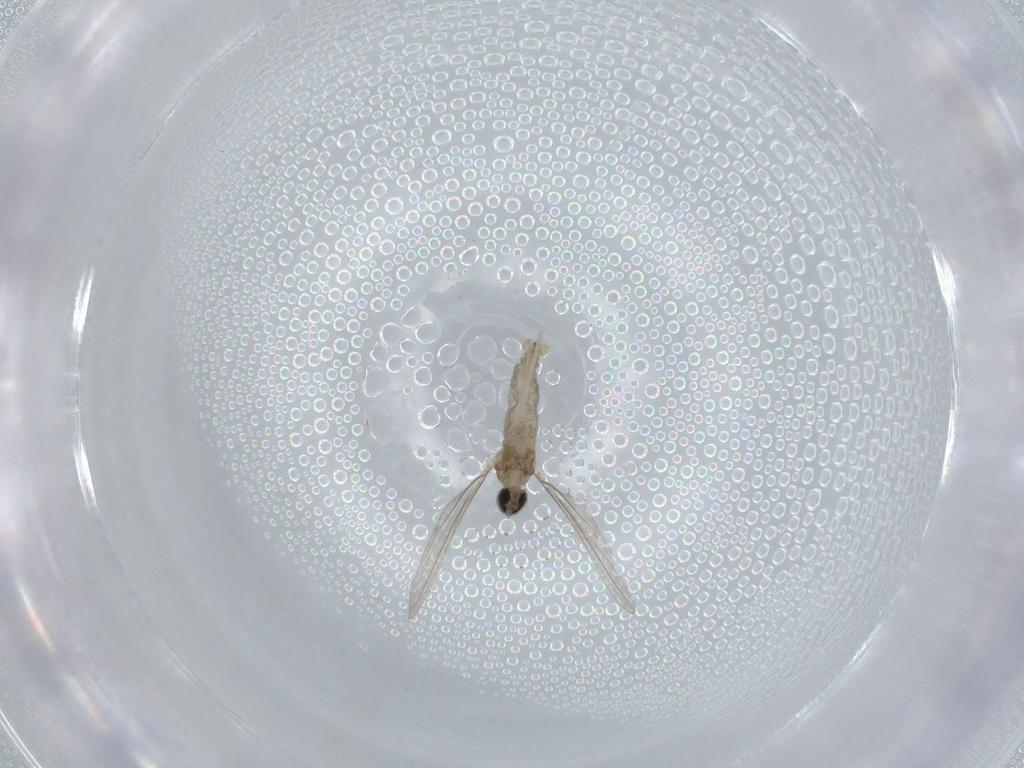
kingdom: Animalia
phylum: Arthropoda
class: Insecta
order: Diptera
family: Cecidomyiidae
